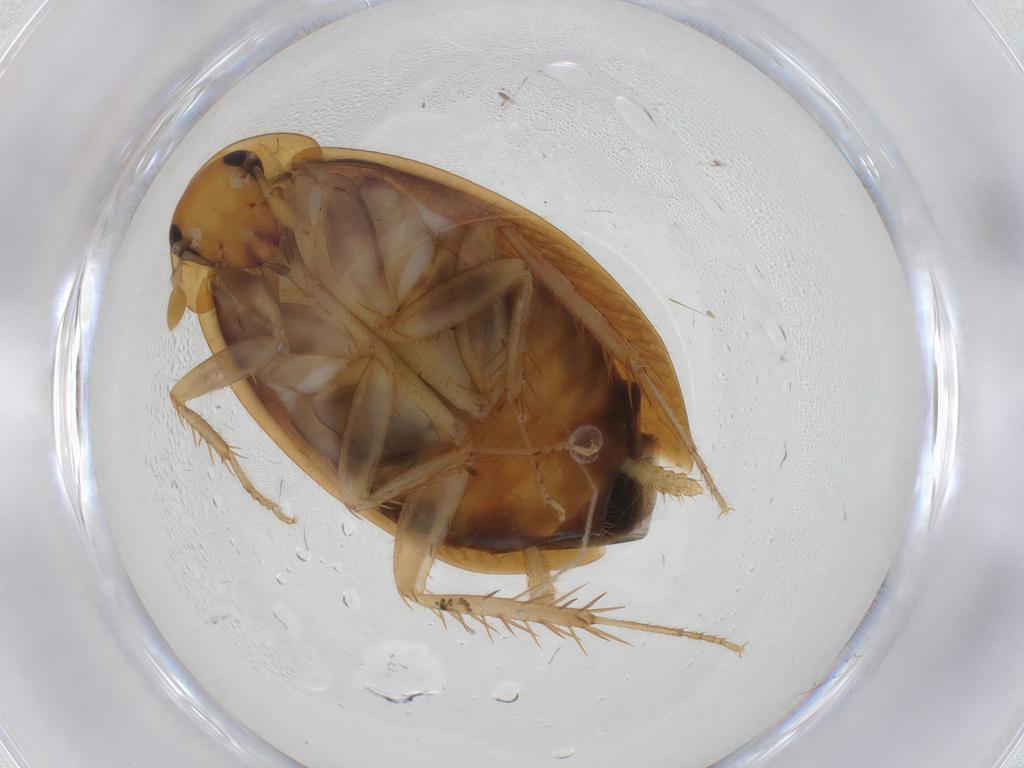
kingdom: Animalia
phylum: Arthropoda
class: Insecta
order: Blattodea
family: Tryonicidae
